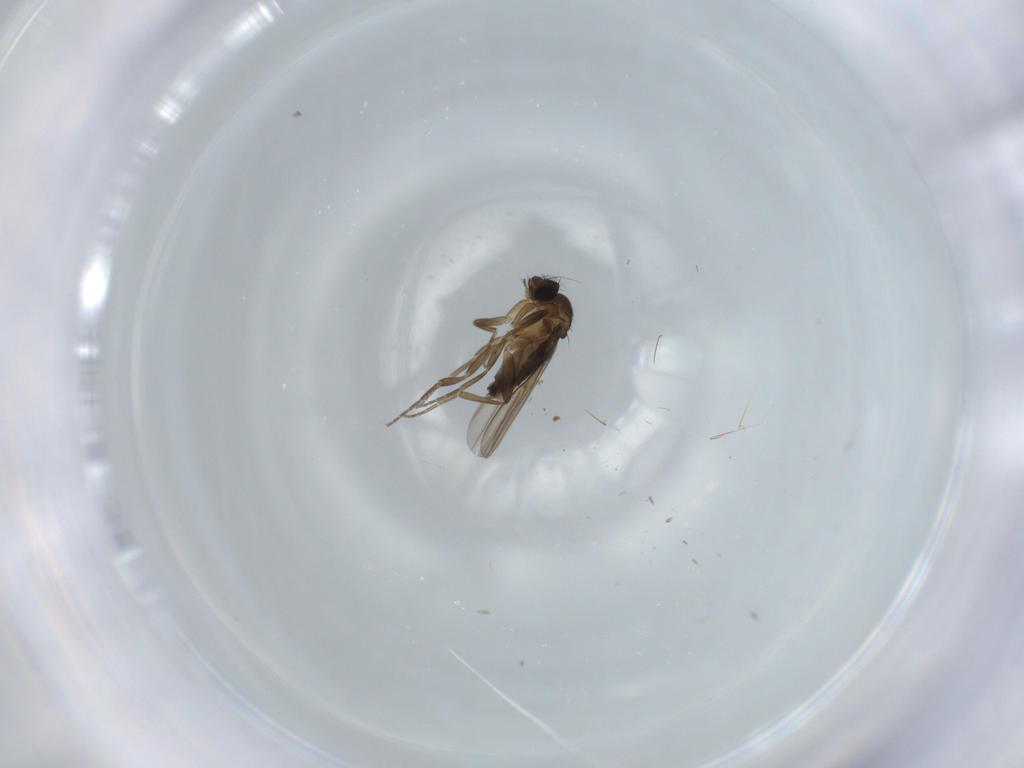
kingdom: Animalia
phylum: Arthropoda
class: Insecta
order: Diptera
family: Phoridae
